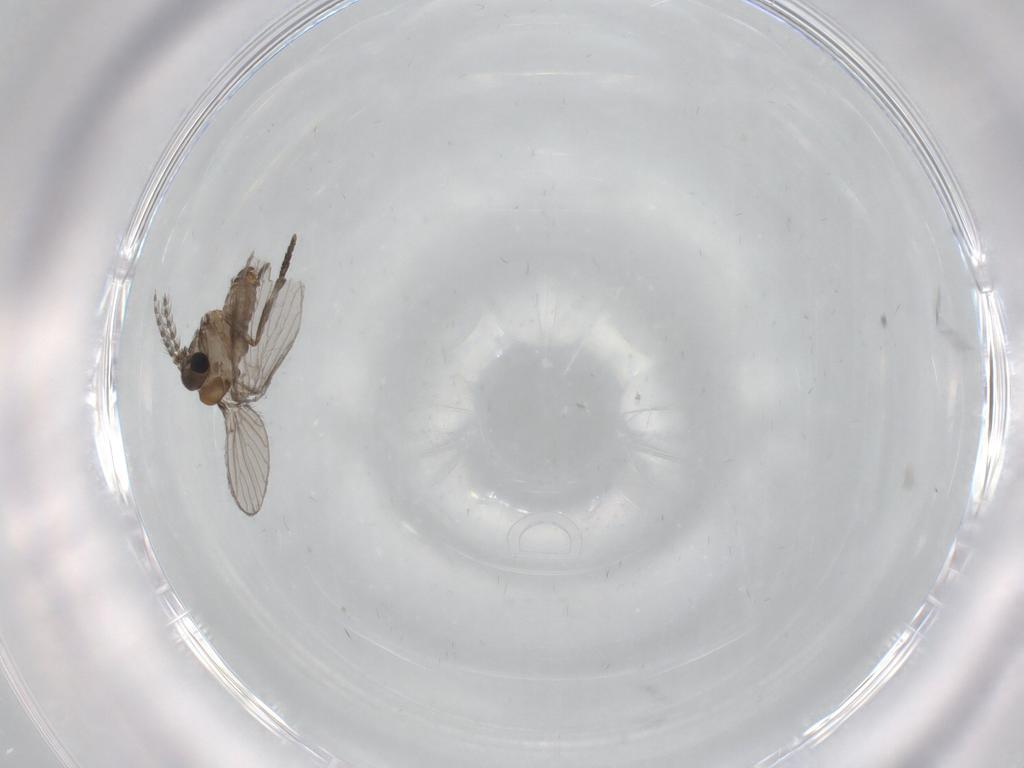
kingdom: Animalia
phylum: Arthropoda
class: Insecta
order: Diptera
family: Psychodidae
